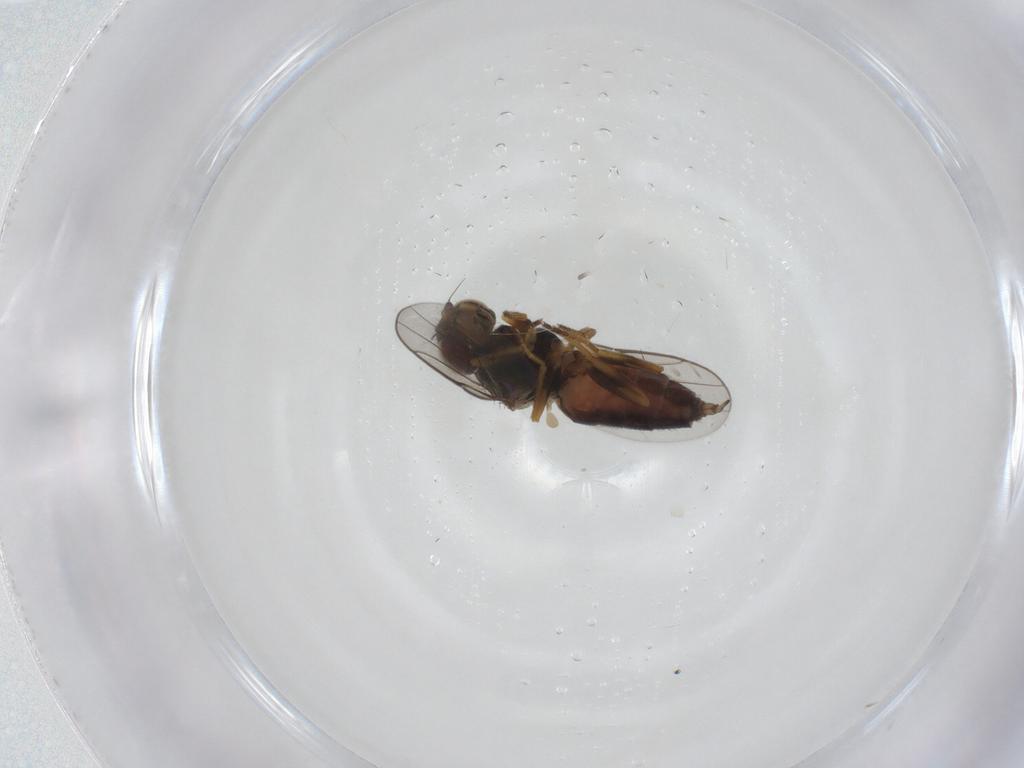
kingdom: Animalia
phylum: Arthropoda
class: Insecta
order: Diptera
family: Chloropidae
